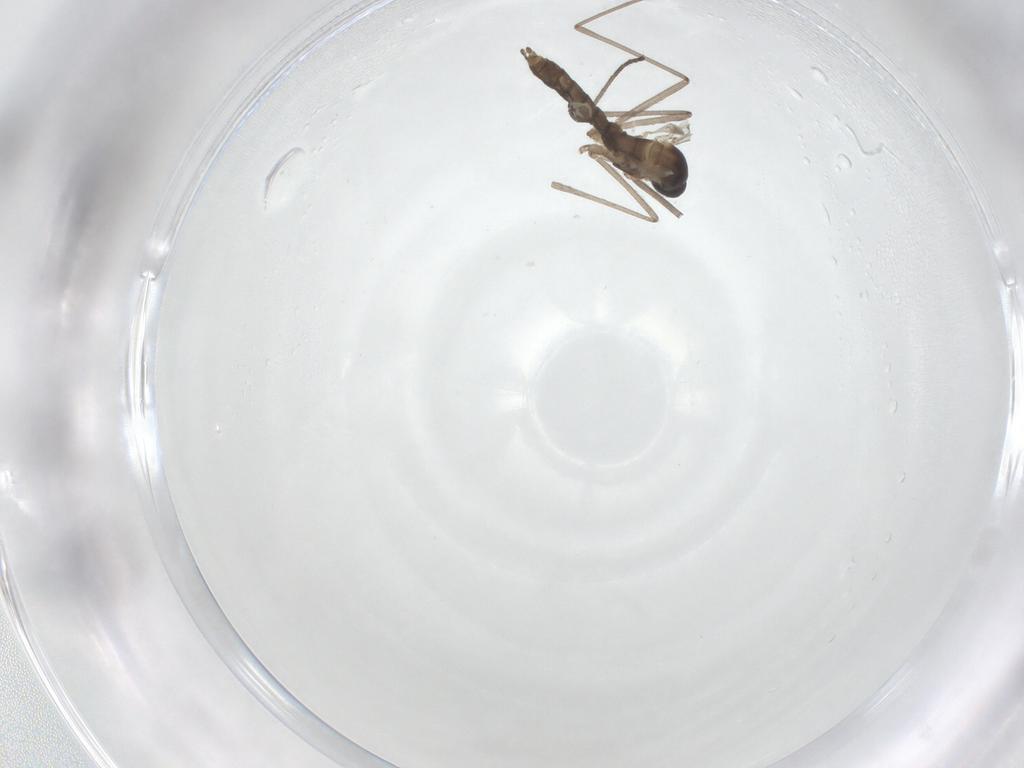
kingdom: Animalia
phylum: Arthropoda
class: Insecta
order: Diptera
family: Cecidomyiidae
